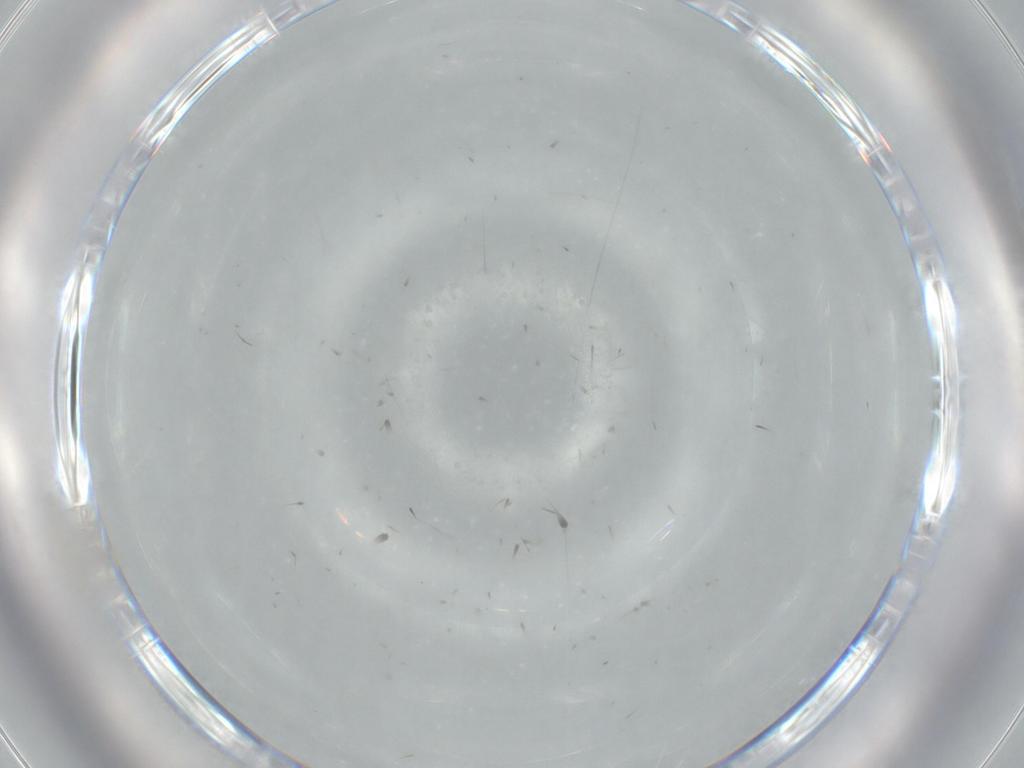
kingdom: Animalia
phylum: Arthropoda
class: Insecta
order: Diptera
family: Cecidomyiidae
